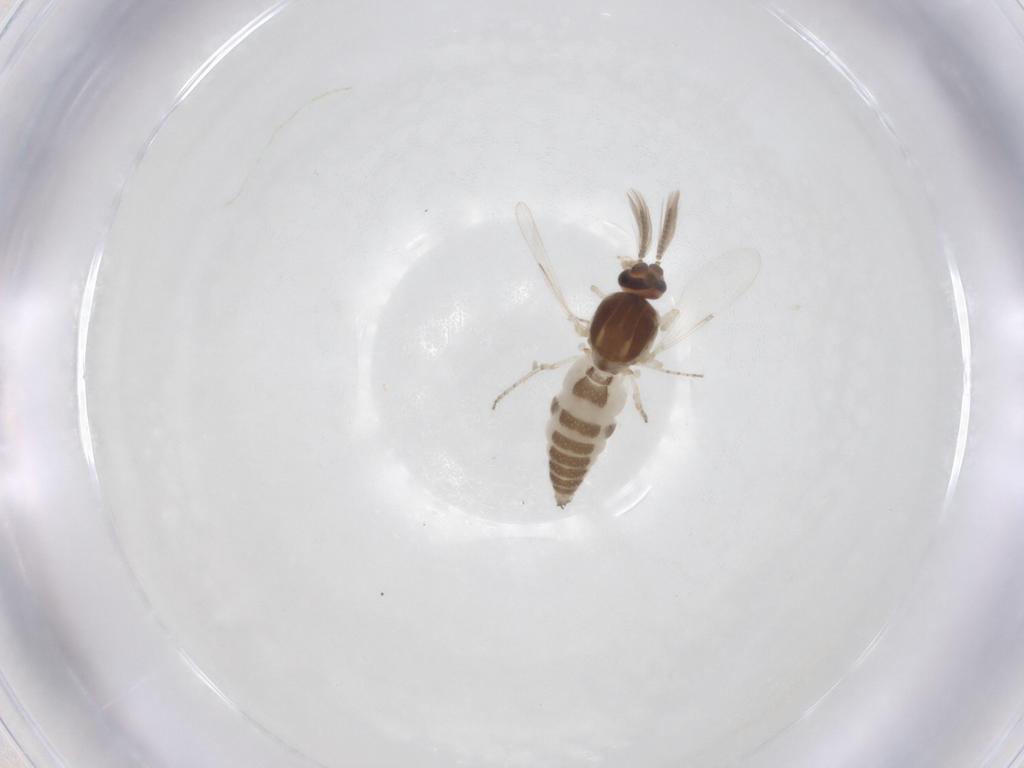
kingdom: Animalia
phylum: Arthropoda
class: Insecta
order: Diptera
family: Ceratopogonidae
